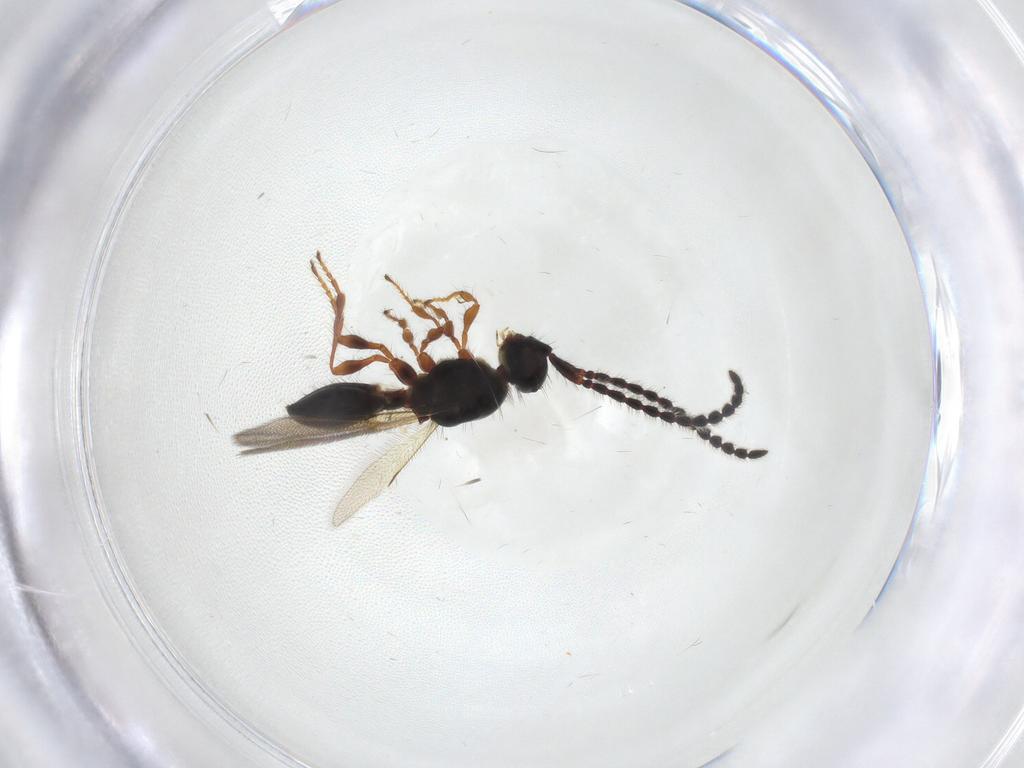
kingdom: Animalia
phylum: Arthropoda
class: Insecta
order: Hymenoptera
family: Diapriidae
